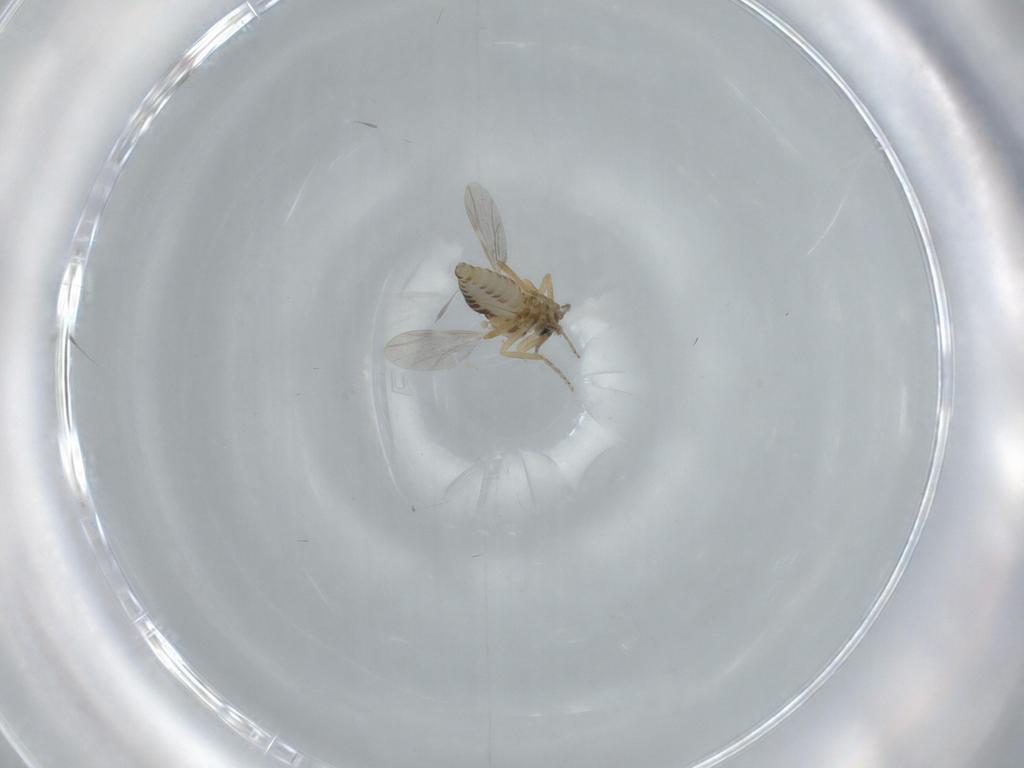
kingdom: Animalia
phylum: Arthropoda
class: Insecta
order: Diptera
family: Ceratopogonidae
